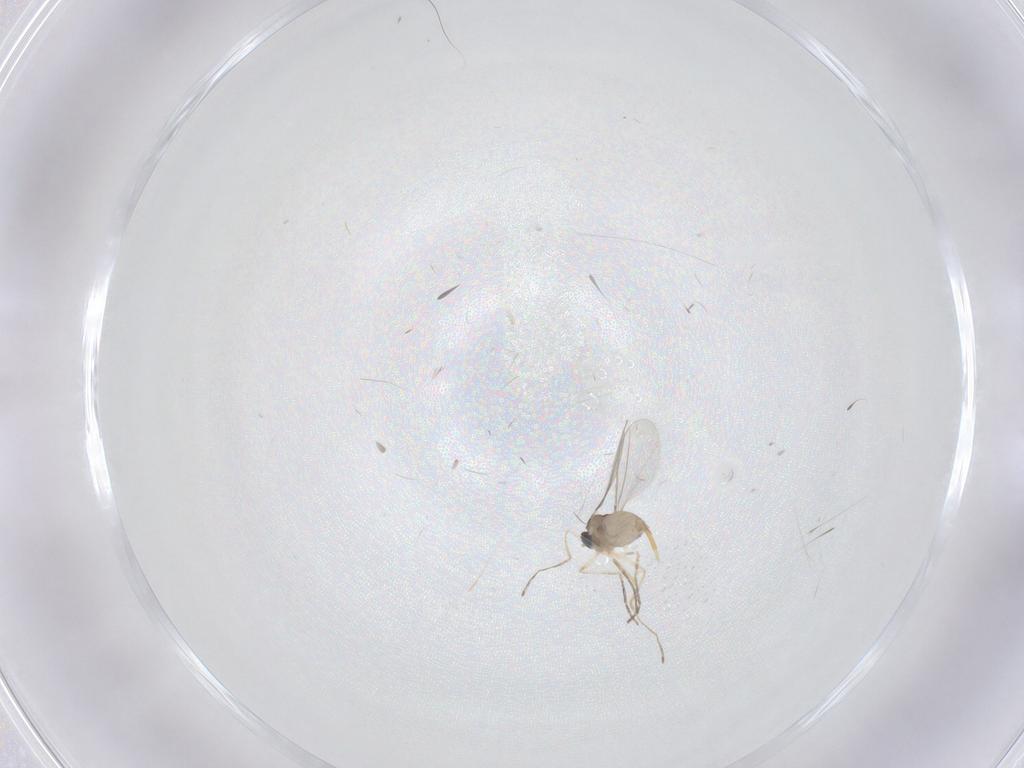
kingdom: Animalia
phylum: Arthropoda
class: Insecta
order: Diptera
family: Cecidomyiidae
